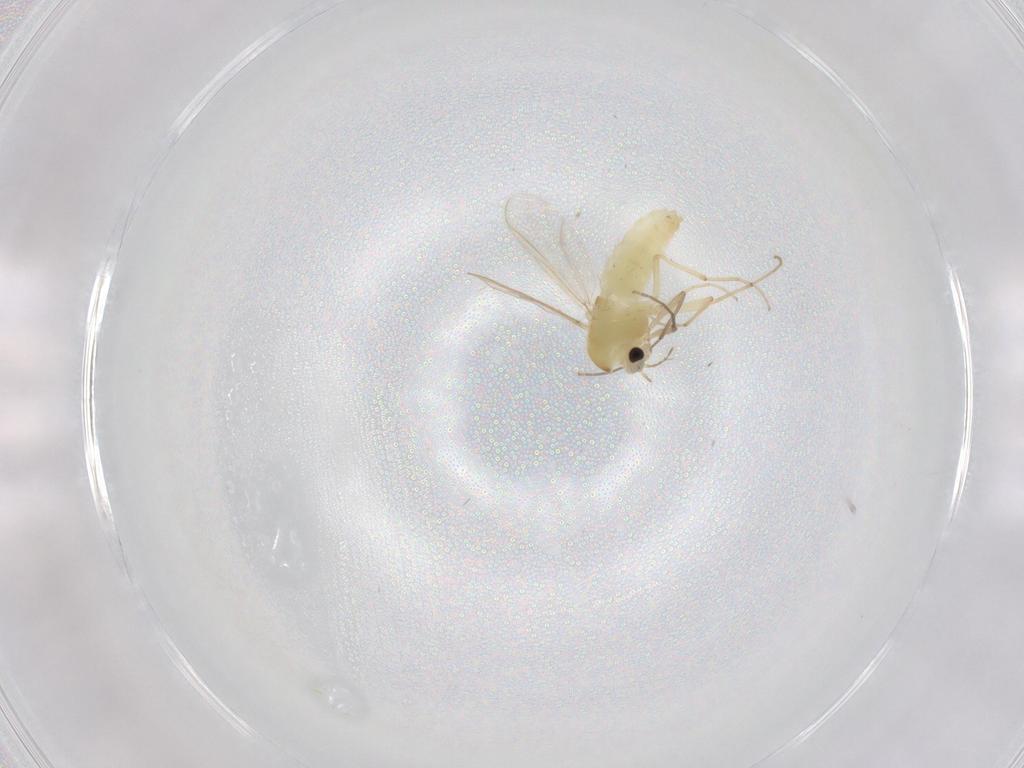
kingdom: Animalia
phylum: Arthropoda
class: Insecta
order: Diptera
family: Chironomidae
